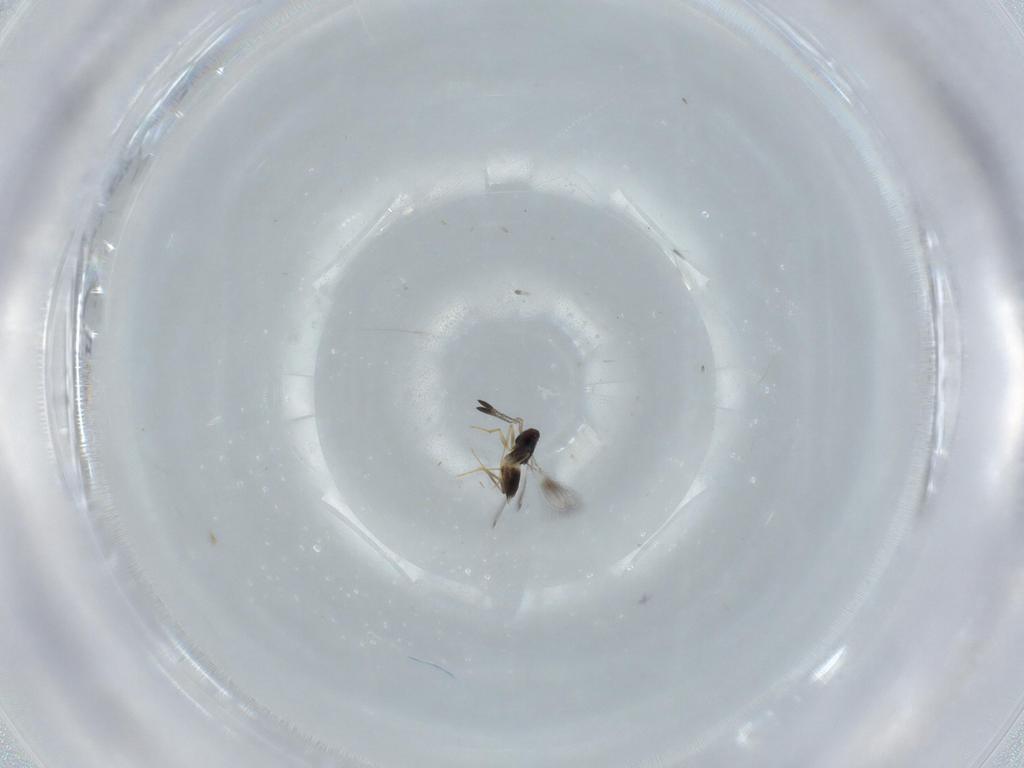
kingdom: Animalia
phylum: Arthropoda
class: Insecta
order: Hymenoptera
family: Mymaridae
